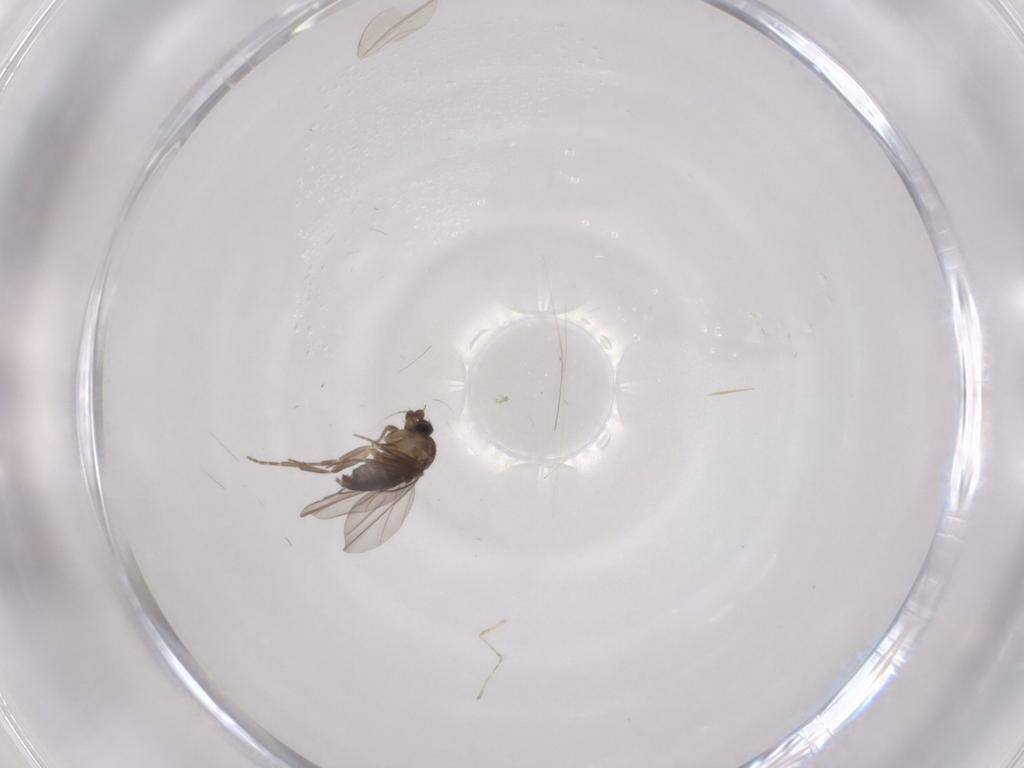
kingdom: Animalia
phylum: Arthropoda
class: Insecta
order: Diptera
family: Cecidomyiidae
